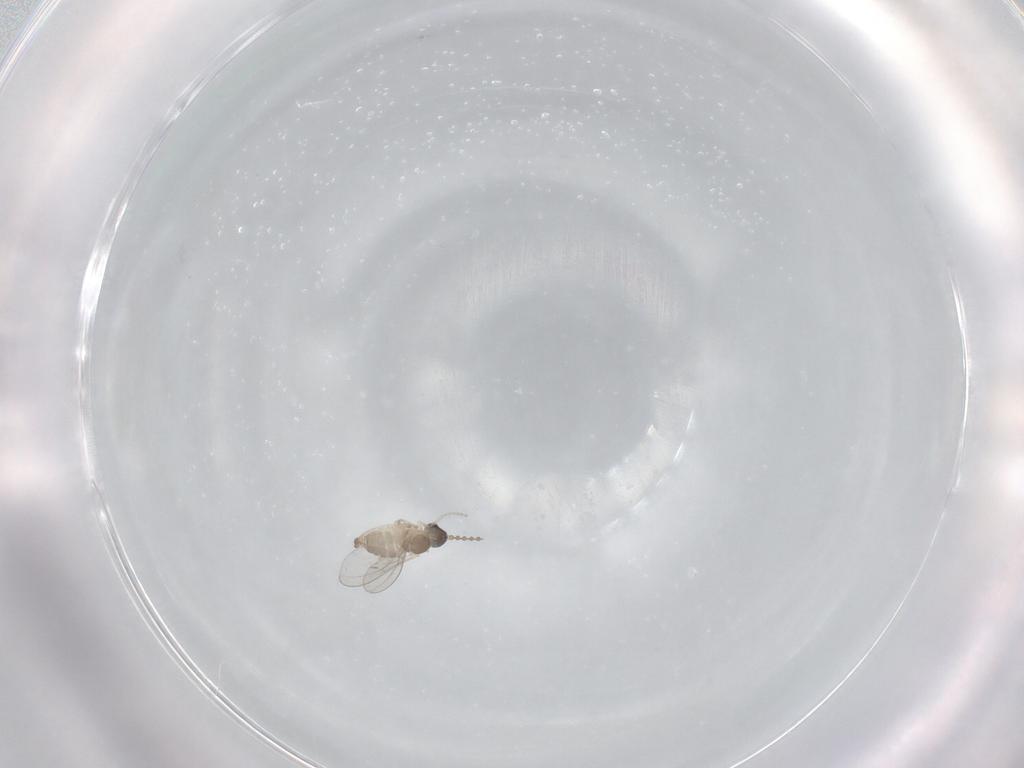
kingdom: Animalia
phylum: Arthropoda
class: Insecta
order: Diptera
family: Cecidomyiidae
